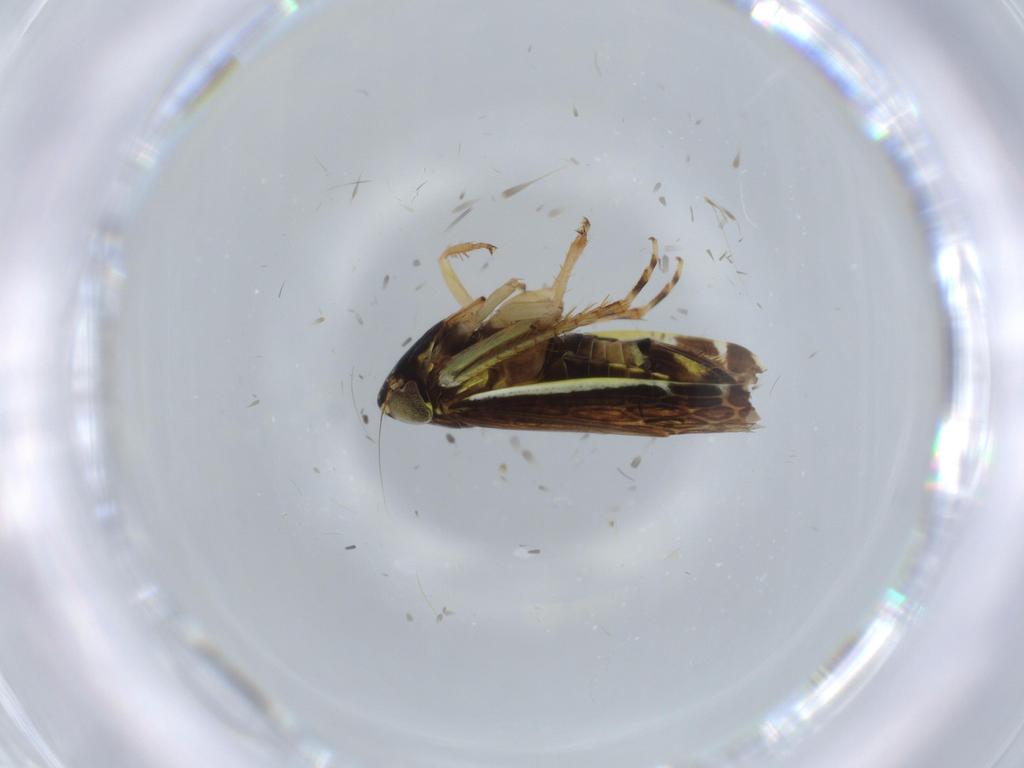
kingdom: Animalia
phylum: Arthropoda
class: Insecta
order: Hemiptera
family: Cicadellidae
